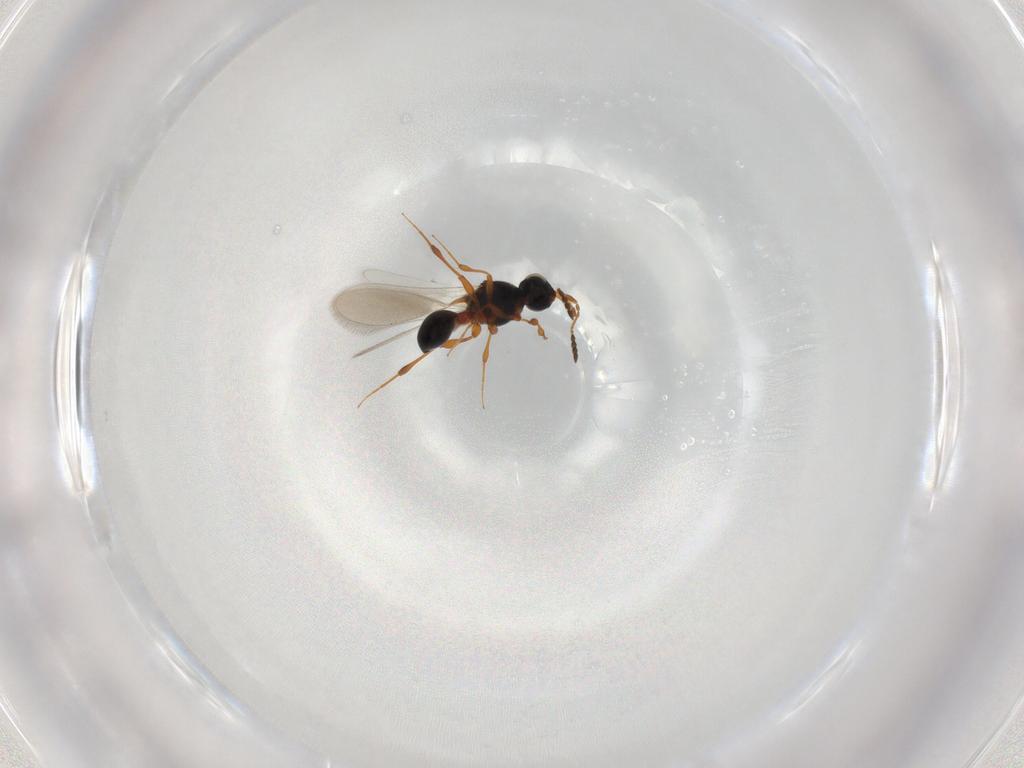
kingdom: Animalia
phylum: Arthropoda
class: Insecta
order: Hymenoptera
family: Platygastridae
